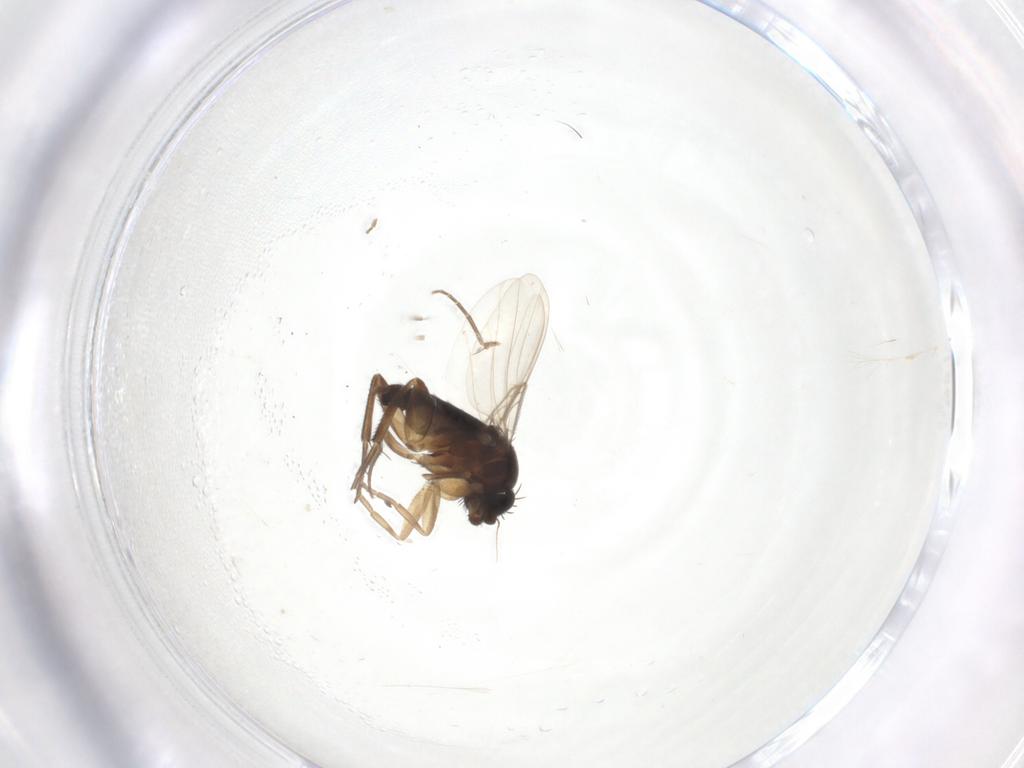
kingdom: Animalia
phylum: Arthropoda
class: Insecta
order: Diptera
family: Phoridae
